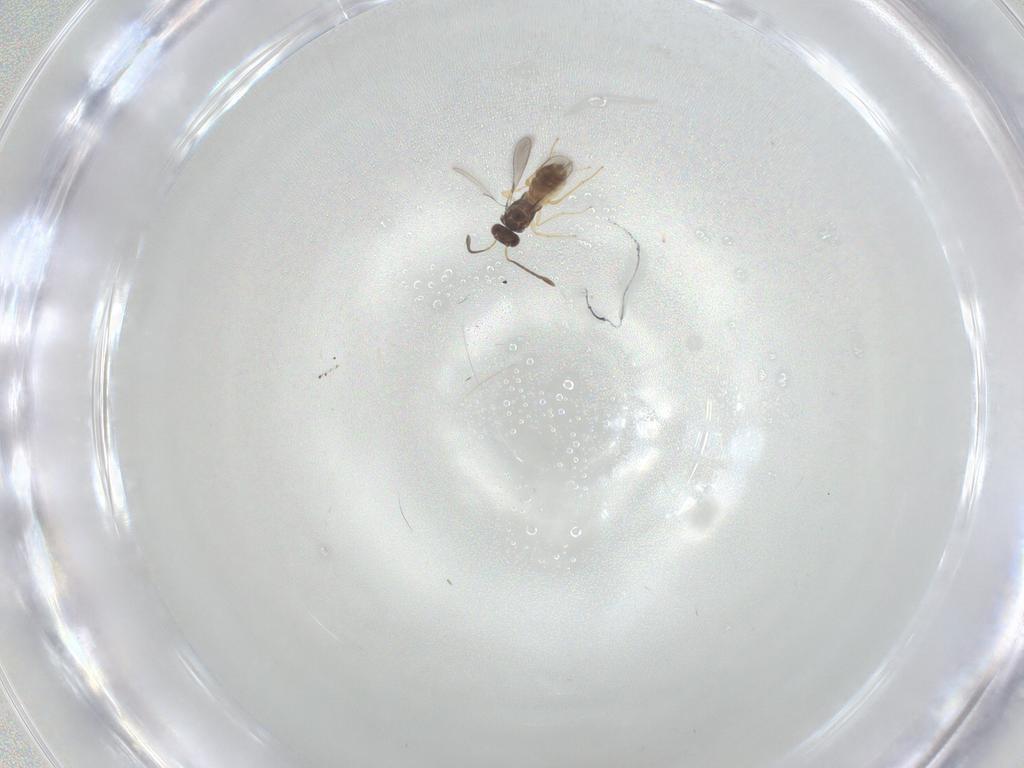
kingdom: Animalia
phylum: Arthropoda
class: Insecta
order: Hymenoptera
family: Mymaridae
